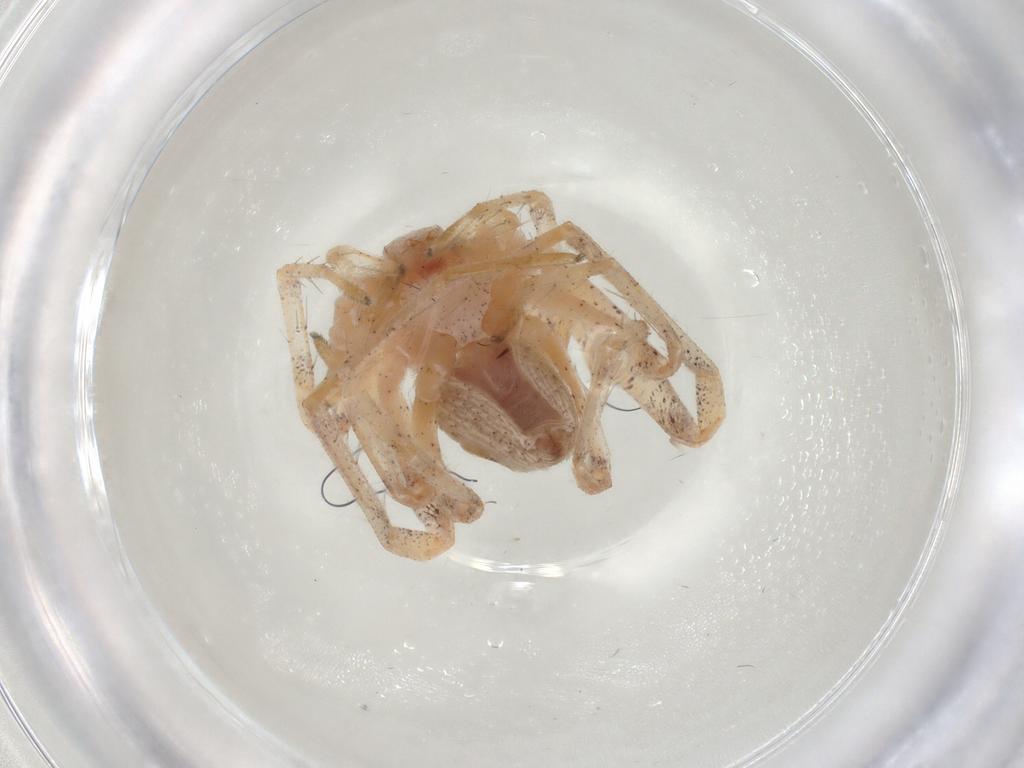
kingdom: Animalia
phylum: Arthropoda
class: Arachnida
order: Araneae
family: Philodromidae
